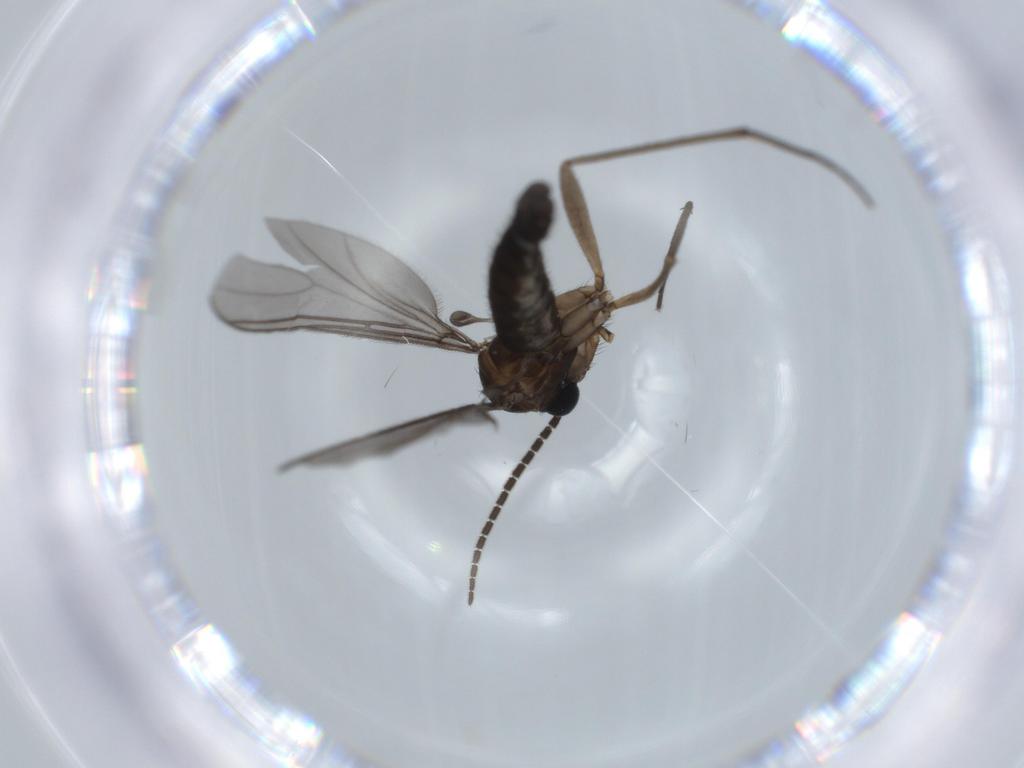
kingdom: Animalia
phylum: Arthropoda
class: Insecta
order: Diptera
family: Sciaridae
